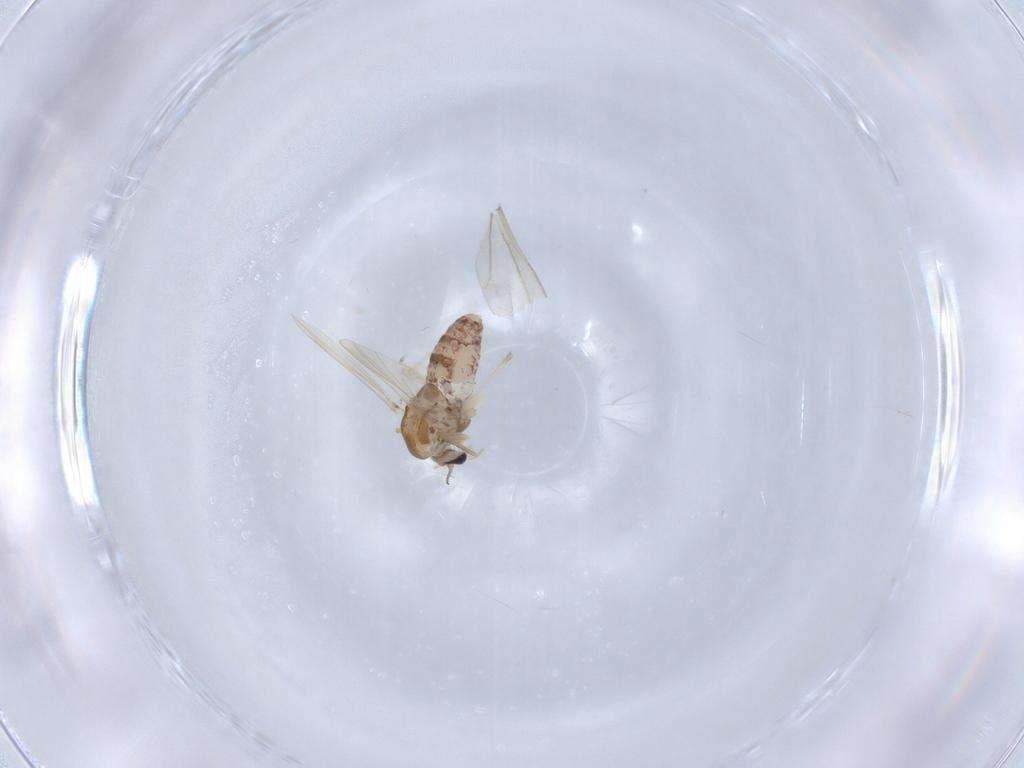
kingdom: Animalia
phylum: Arthropoda
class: Insecta
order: Diptera
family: Chironomidae
